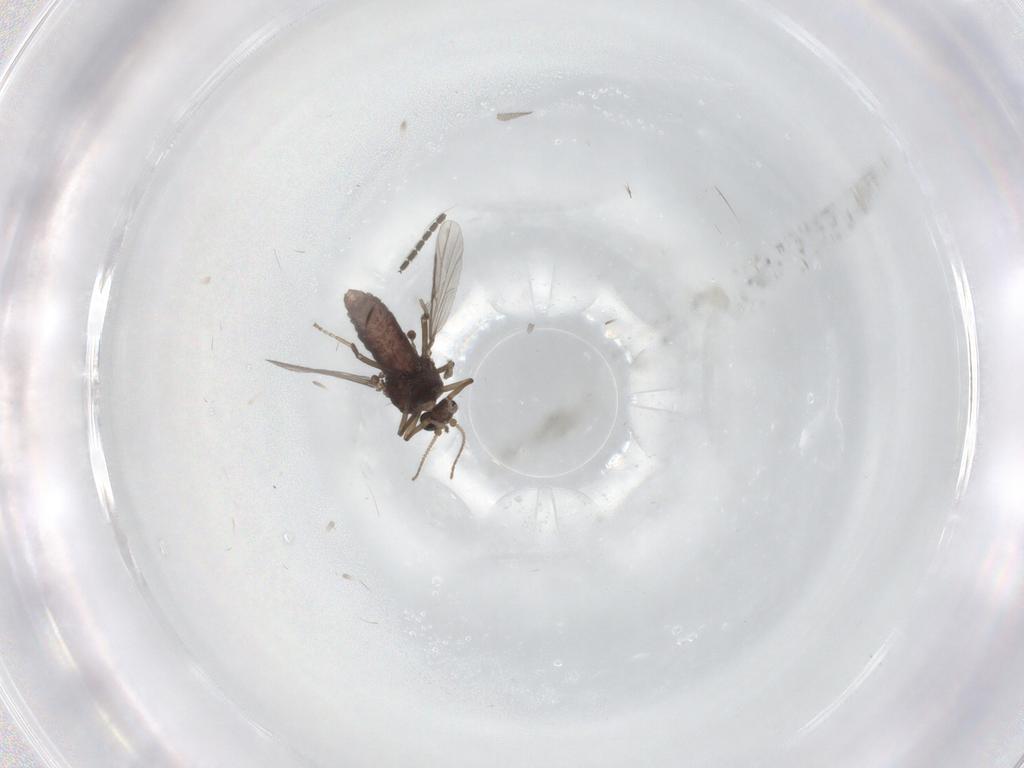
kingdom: Animalia
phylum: Arthropoda
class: Insecta
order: Diptera
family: Ceratopogonidae
